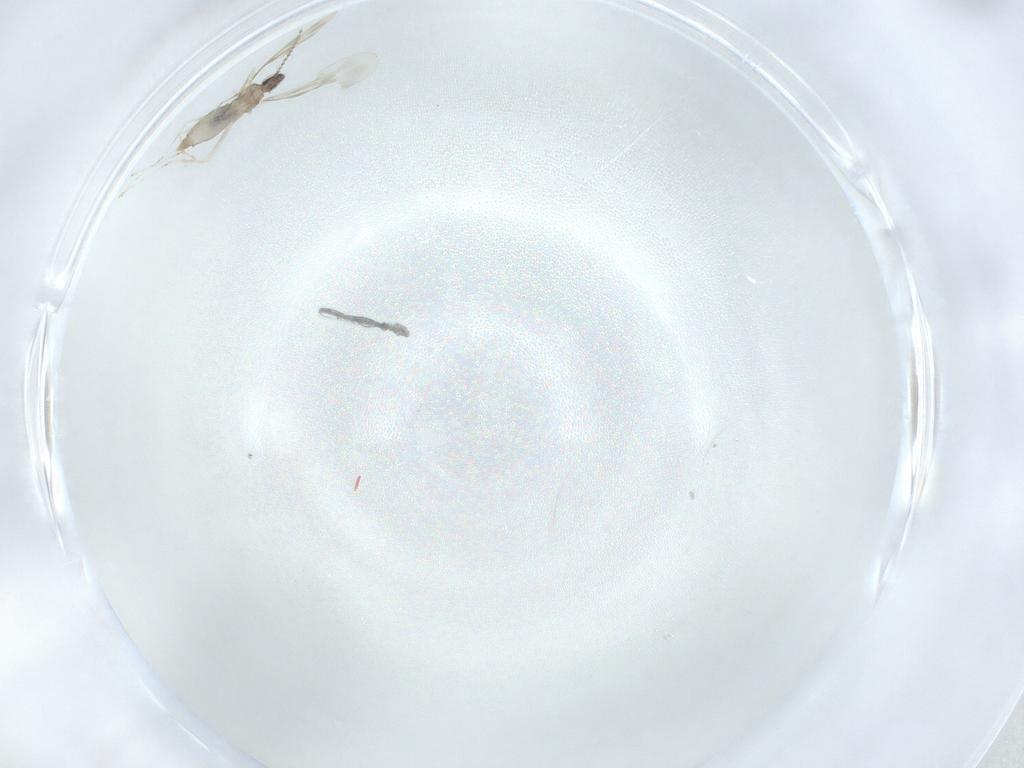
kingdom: Animalia
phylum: Arthropoda
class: Insecta
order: Diptera
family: Cecidomyiidae
